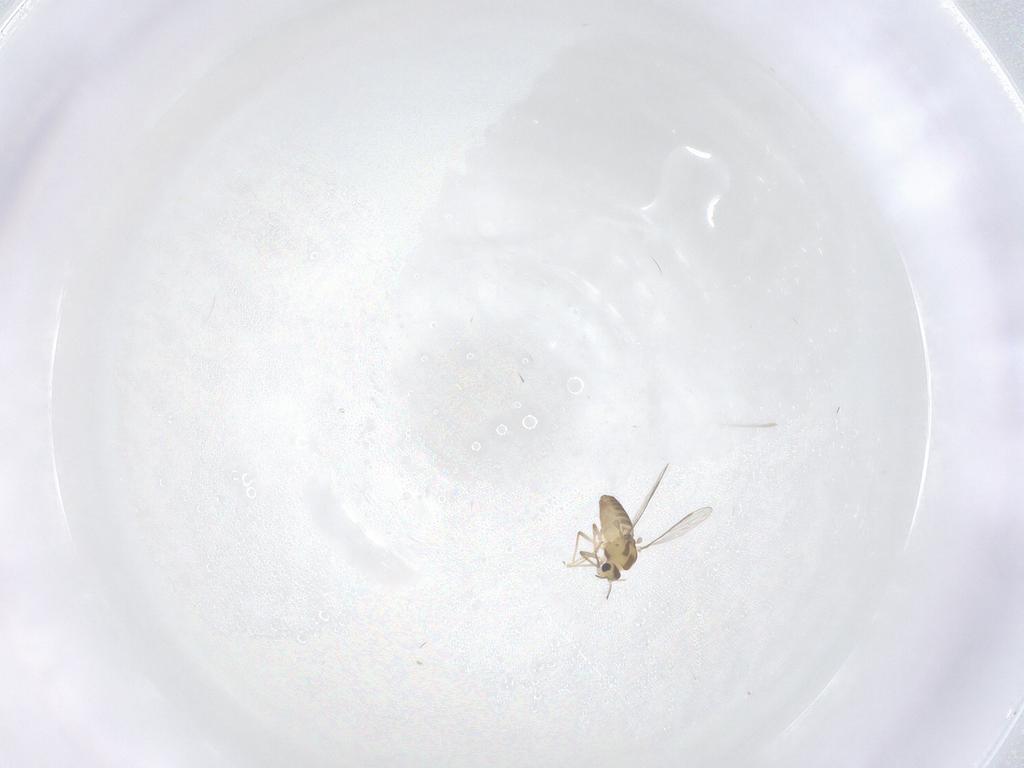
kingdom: Animalia
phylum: Arthropoda
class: Insecta
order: Diptera
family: Chironomidae
